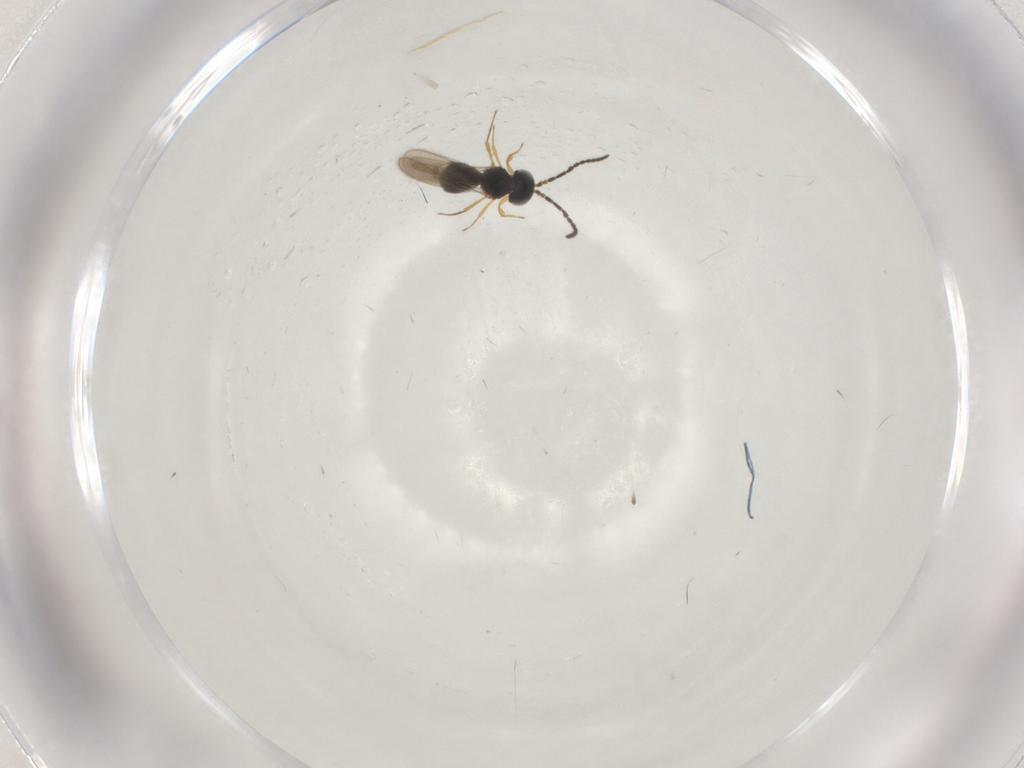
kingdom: Animalia
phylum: Arthropoda
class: Insecta
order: Hymenoptera
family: Scelionidae
